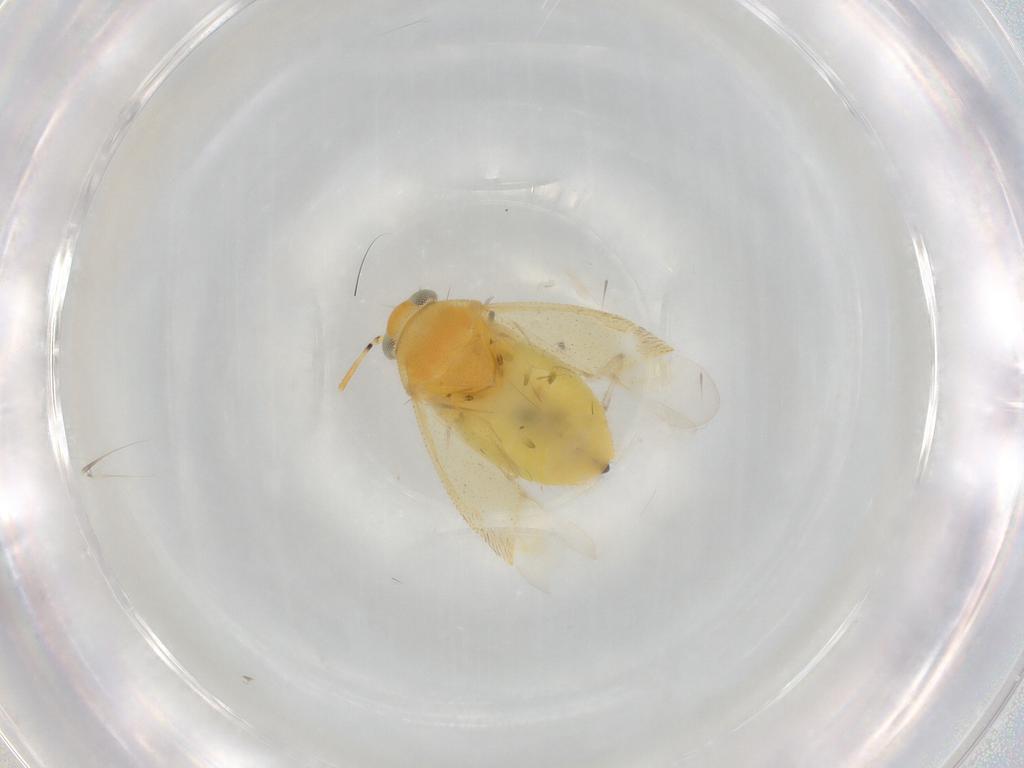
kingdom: Animalia
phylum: Arthropoda
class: Insecta
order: Hemiptera
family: Miridae
